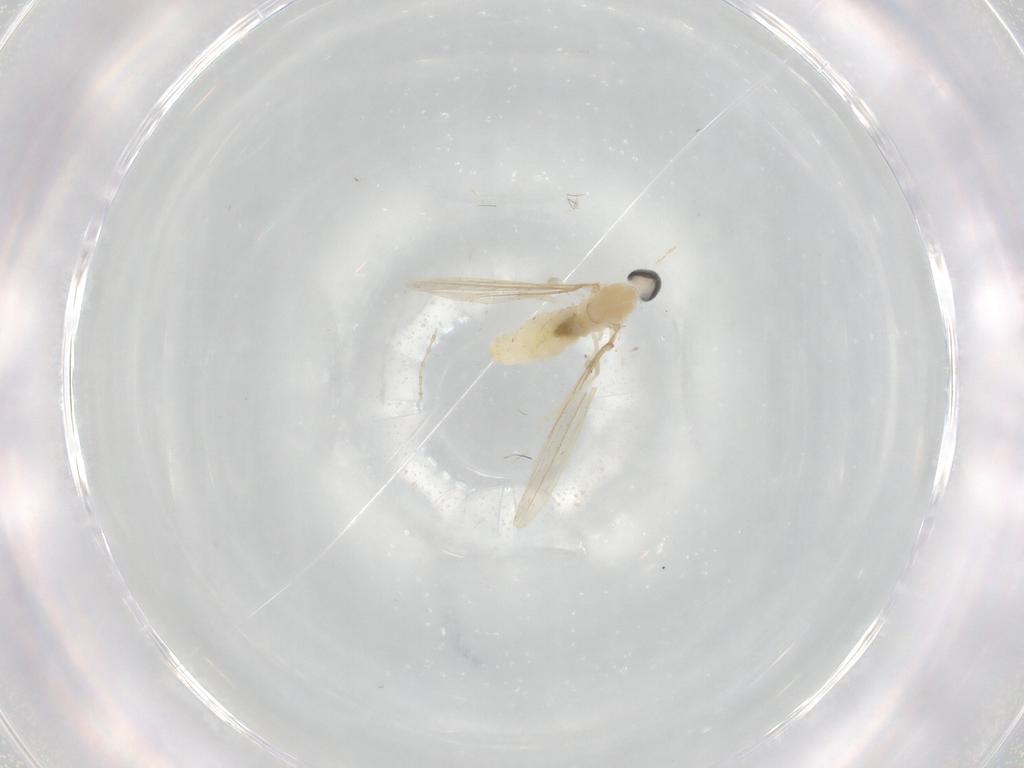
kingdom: Animalia
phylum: Arthropoda
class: Insecta
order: Diptera
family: Cecidomyiidae
